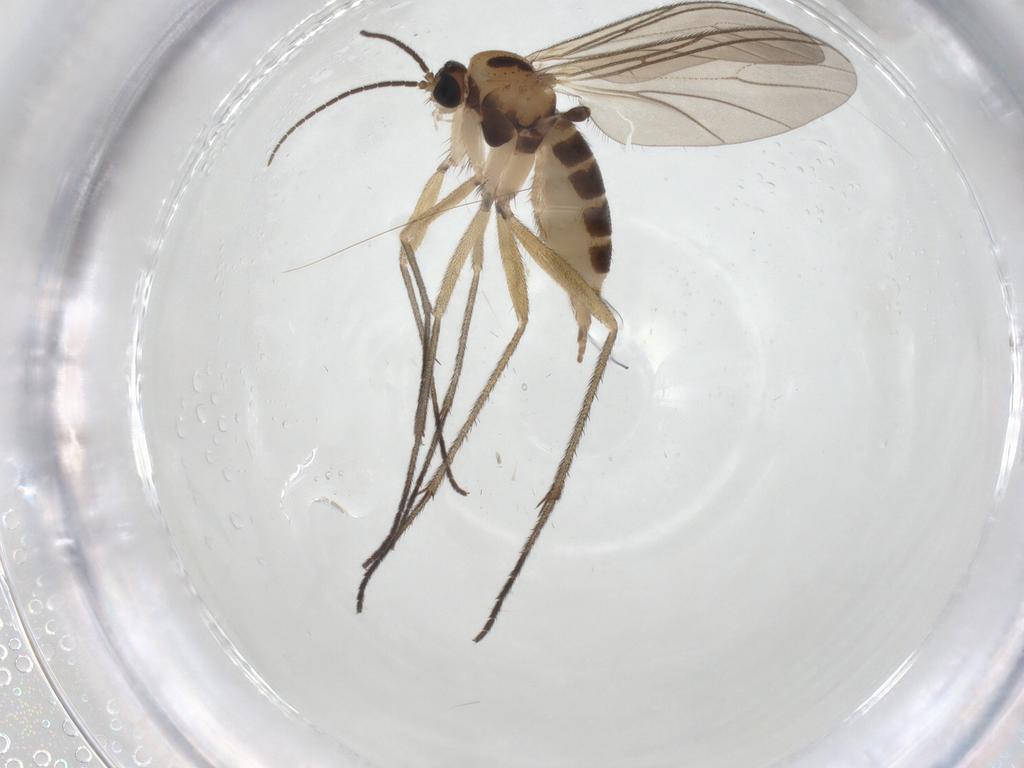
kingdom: Animalia
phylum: Arthropoda
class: Insecta
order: Diptera
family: Sciaridae
